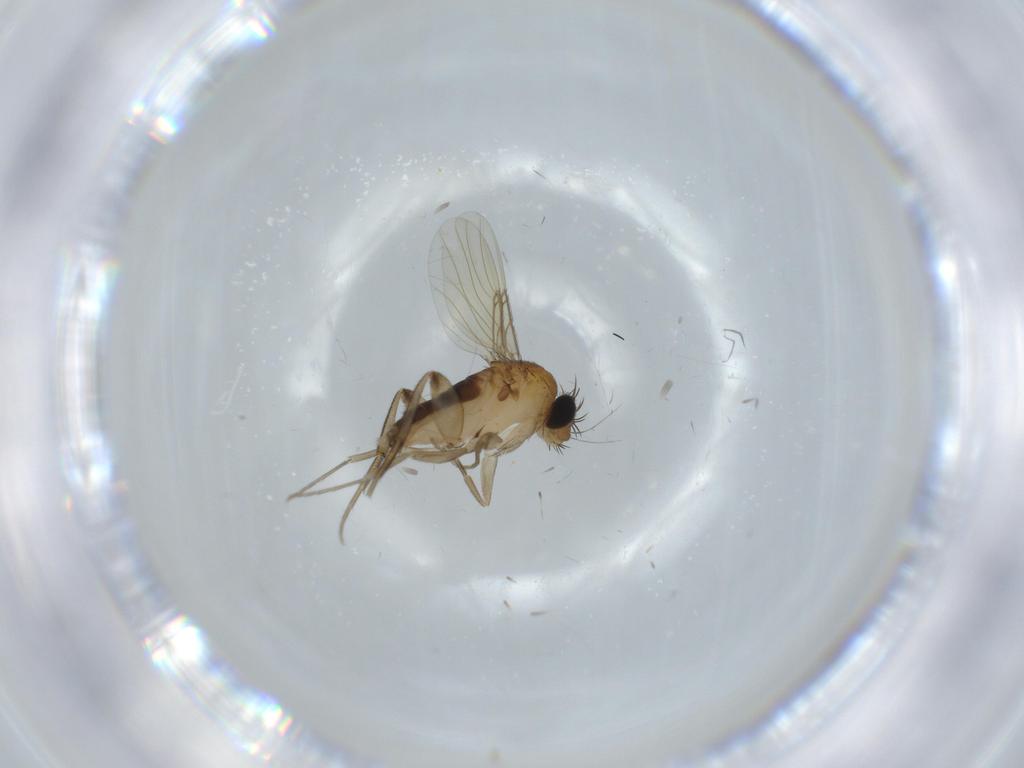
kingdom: Animalia
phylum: Arthropoda
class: Insecta
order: Diptera
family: Phoridae
